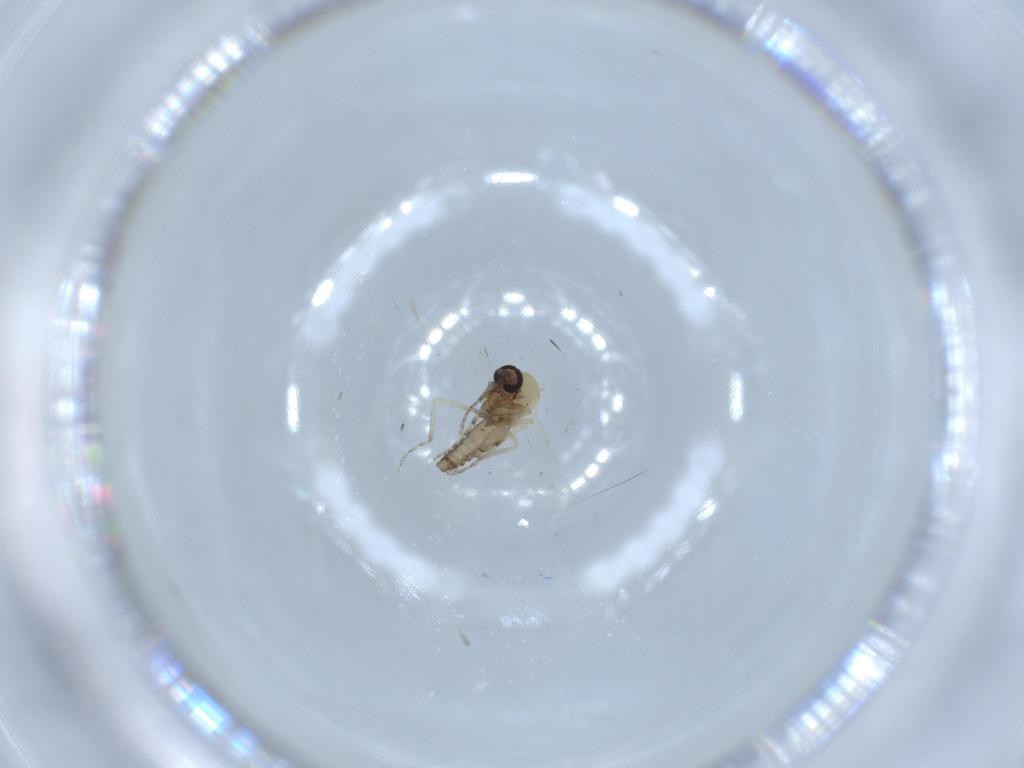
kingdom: Animalia
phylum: Arthropoda
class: Insecta
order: Diptera
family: Ceratopogonidae
